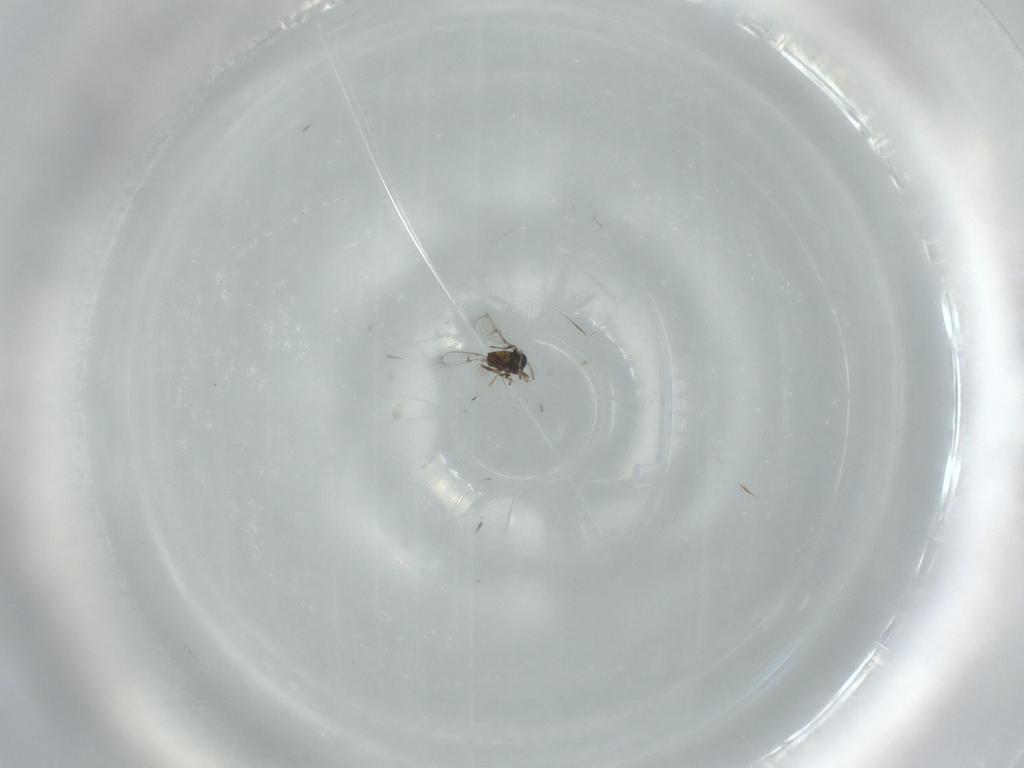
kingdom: Animalia
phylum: Arthropoda
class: Insecta
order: Hymenoptera
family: Trichogrammatidae
